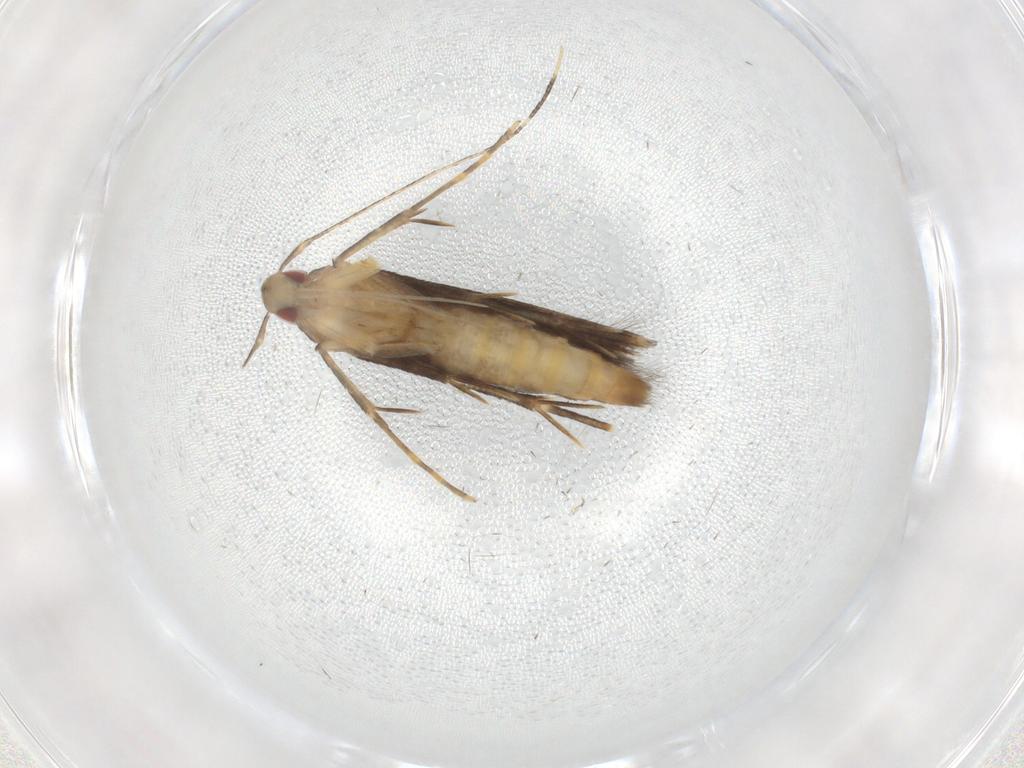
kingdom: Animalia
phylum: Arthropoda
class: Insecta
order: Lepidoptera
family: Cosmopterigidae
